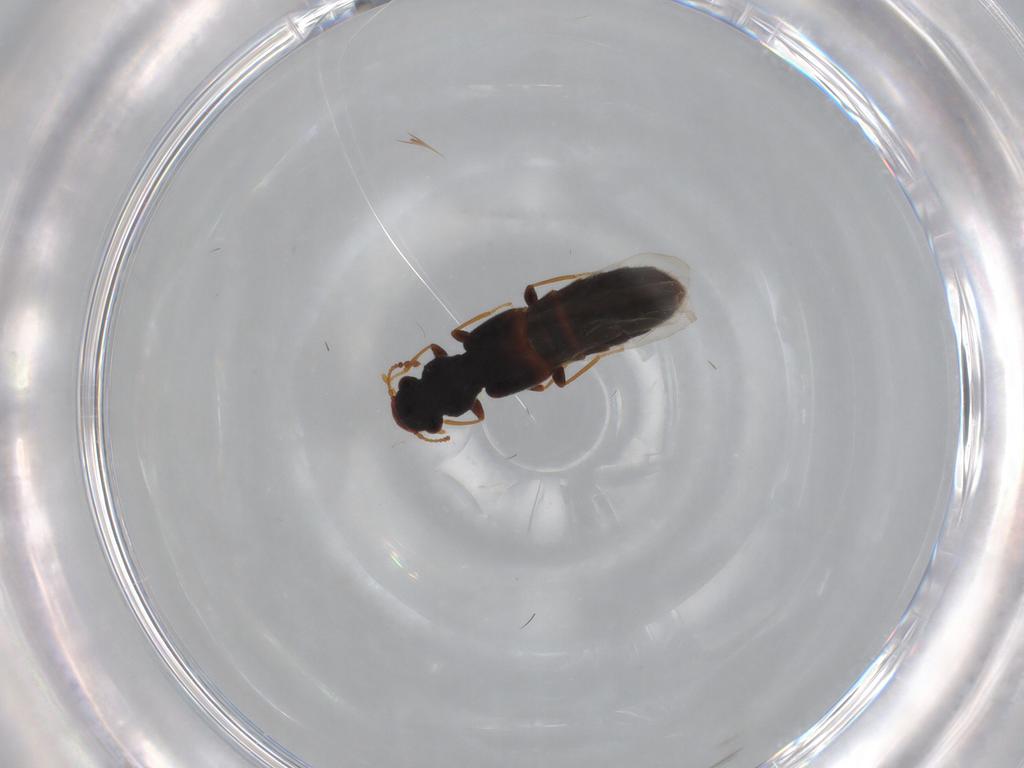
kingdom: Animalia
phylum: Arthropoda
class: Insecta
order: Coleoptera
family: Staphylinidae
